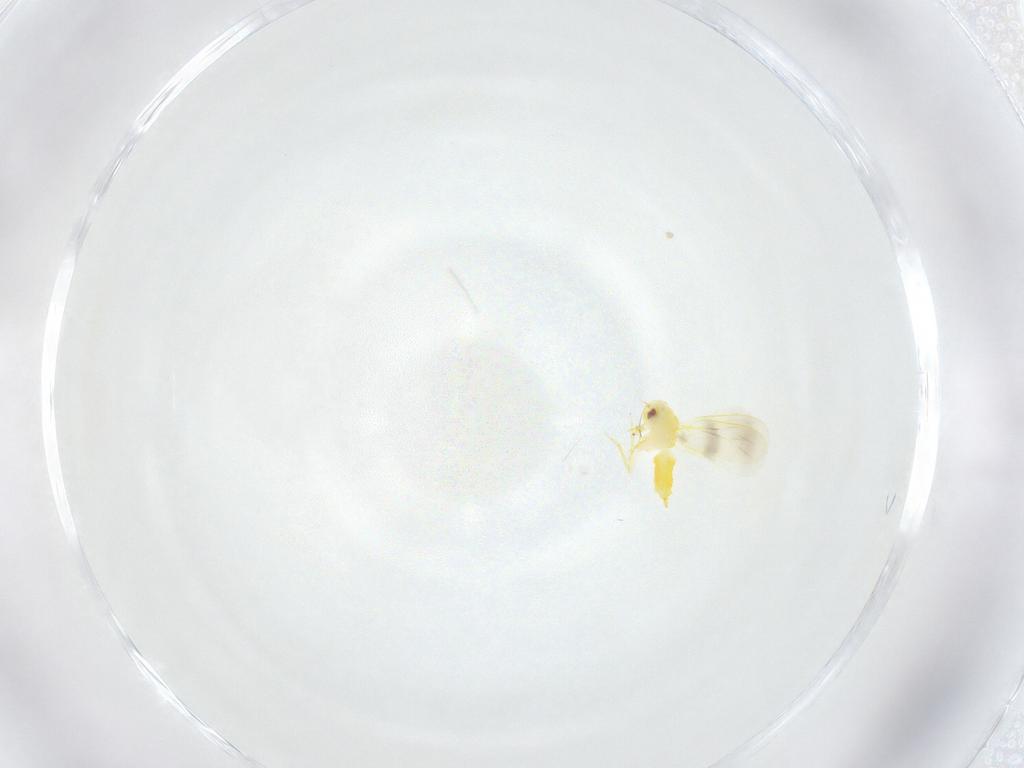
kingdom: Animalia
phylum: Arthropoda
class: Insecta
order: Hemiptera
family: Aleyrodidae
